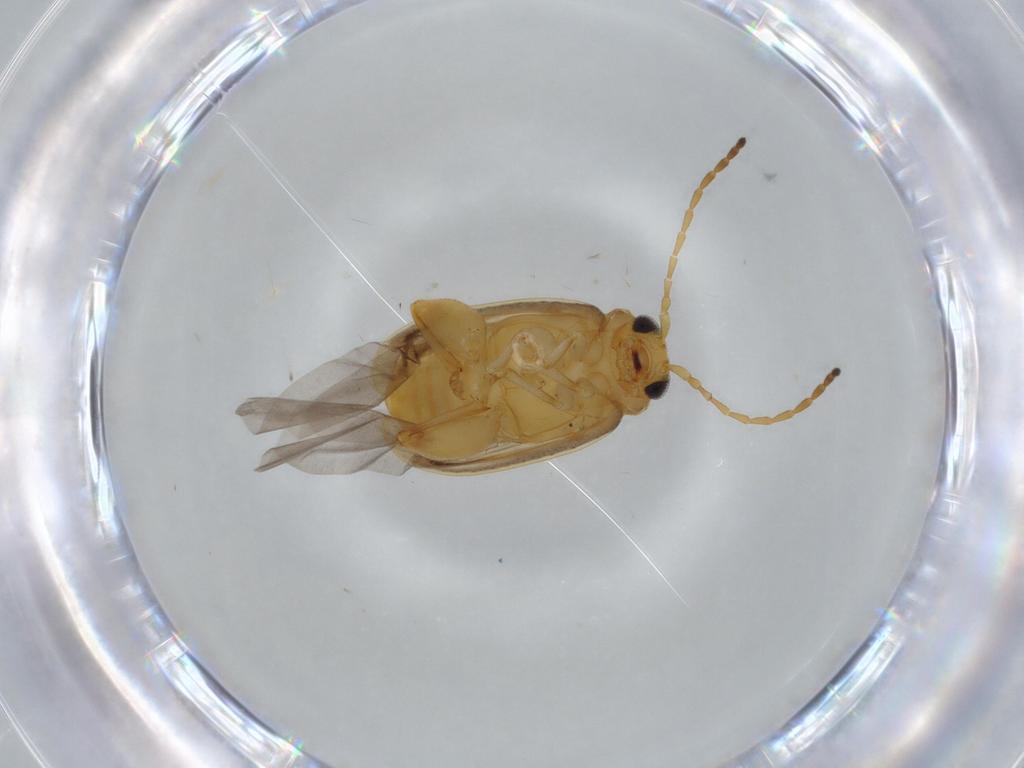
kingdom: Animalia
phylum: Arthropoda
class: Insecta
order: Coleoptera
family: Chrysomelidae
